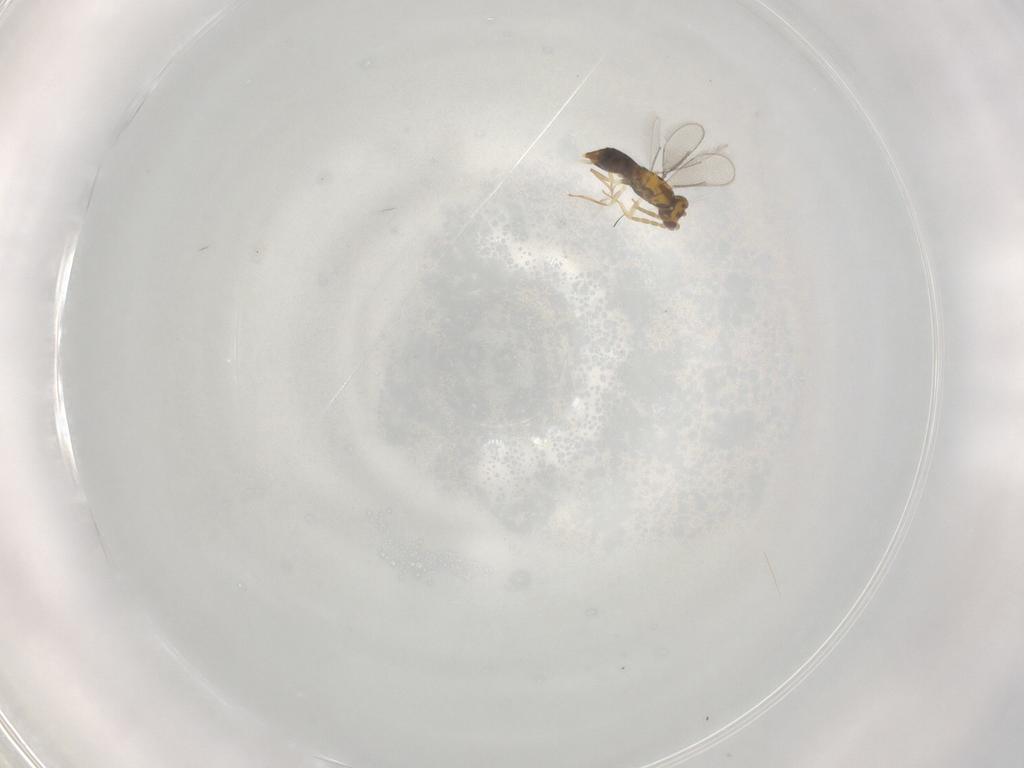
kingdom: Animalia
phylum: Arthropoda
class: Insecta
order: Hymenoptera
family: Aphelinidae
